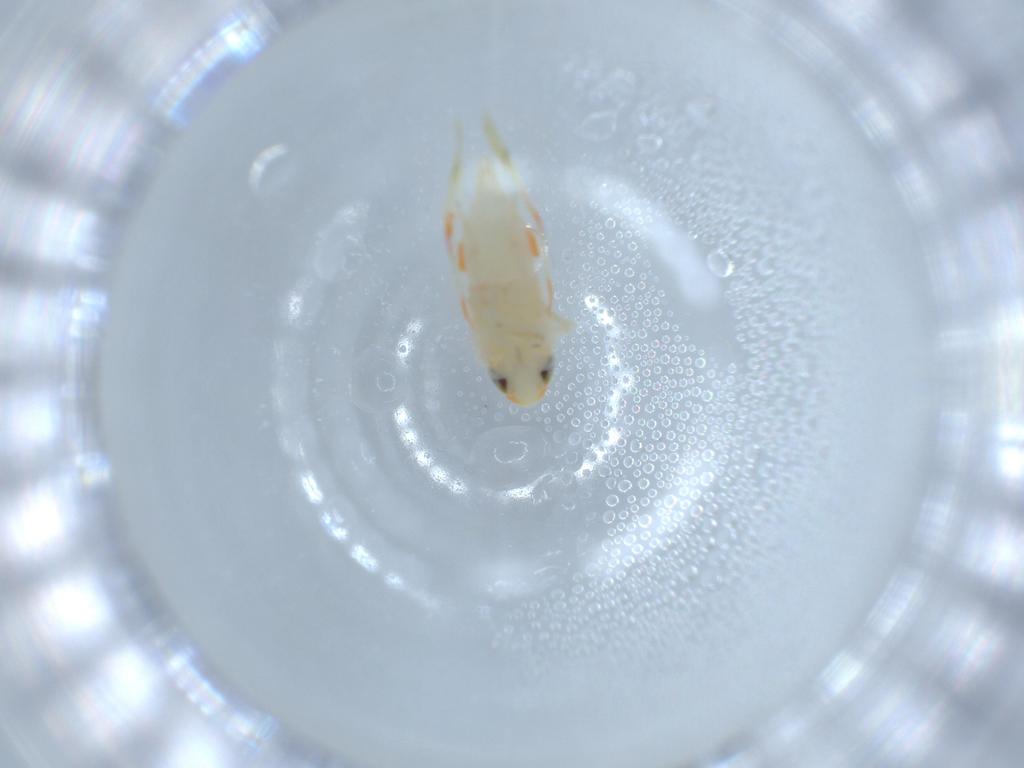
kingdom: Animalia
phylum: Arthropoda
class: Insecta
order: Hemiptera
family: Cicadellidae
